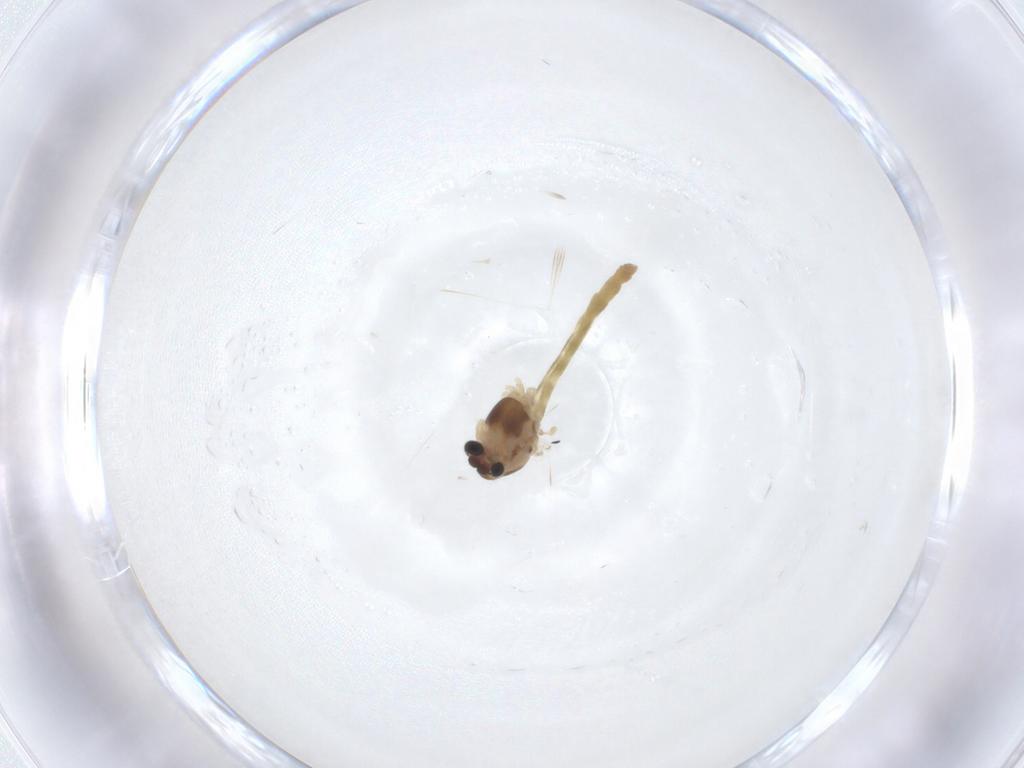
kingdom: Animalia
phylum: Arthropoda
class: Insecta
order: Diptera
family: Chironomidae
